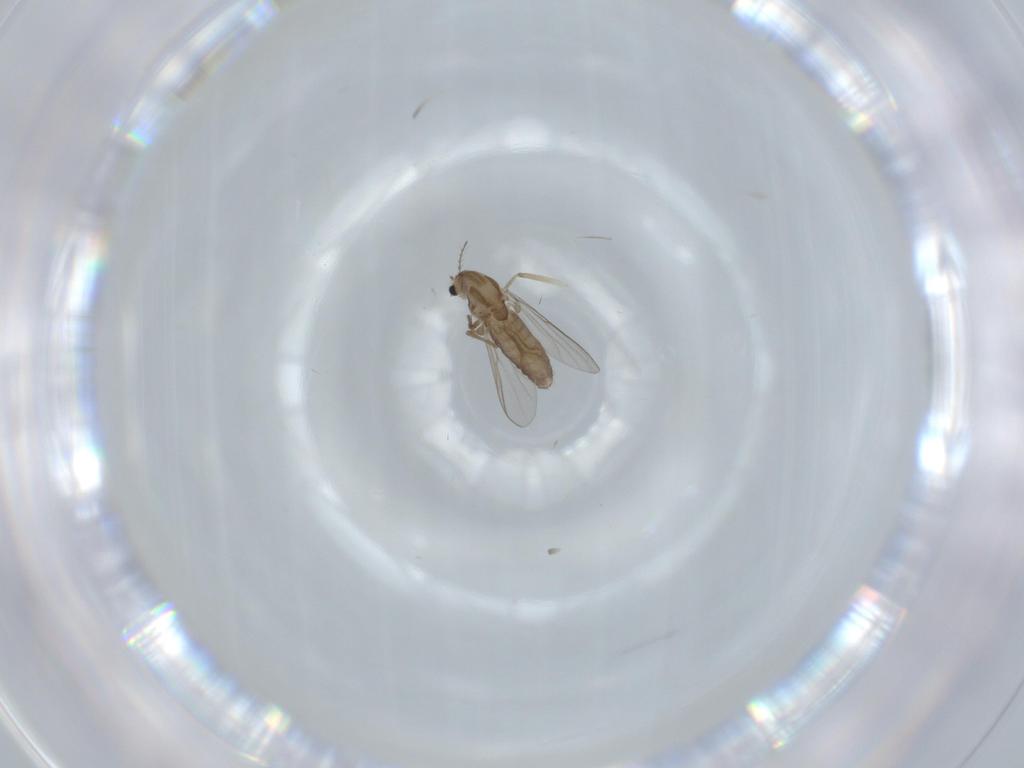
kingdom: Animalia
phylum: Arthropoda
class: Insecta
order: Diptera
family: Chironomidae
